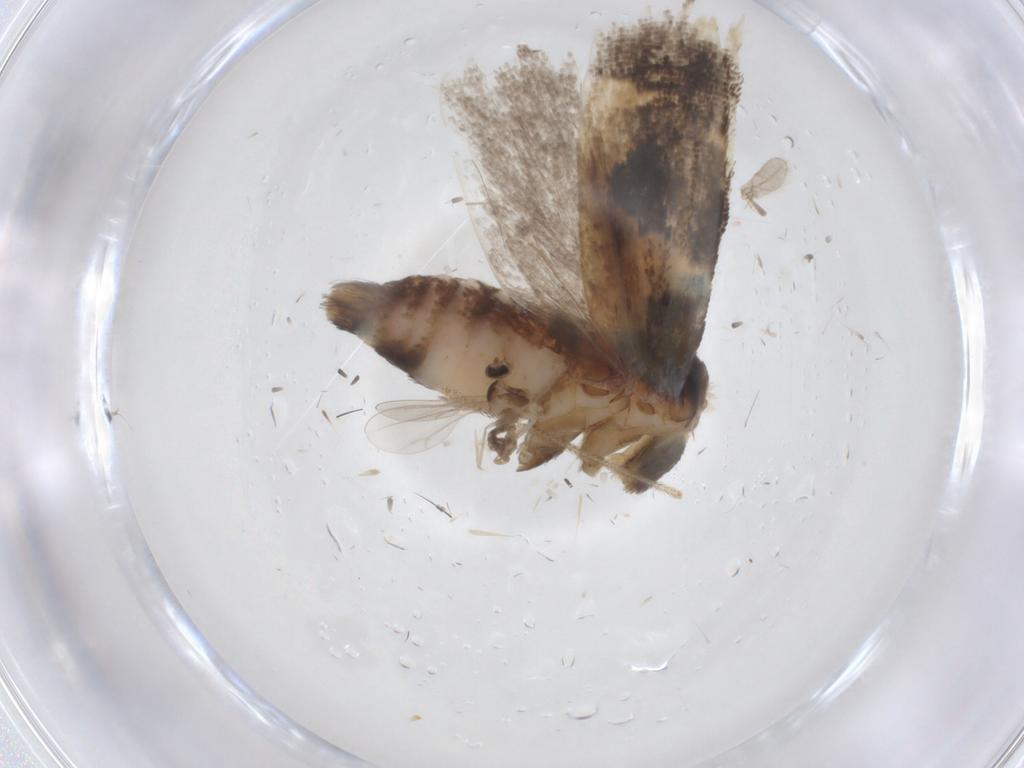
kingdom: Animalia
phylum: Arthropoda
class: Insecta
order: Lepidoptera
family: Gelechiidae
